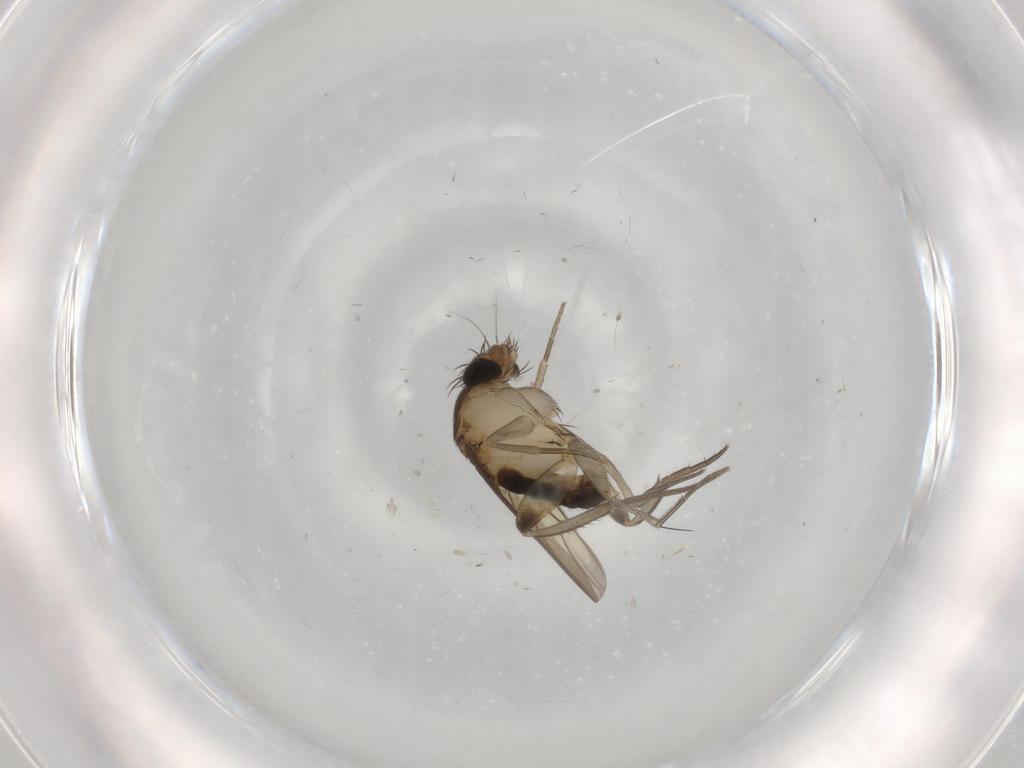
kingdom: Animalia
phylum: Arthropoda
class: Insecta
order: Diptera
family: Phoridae
